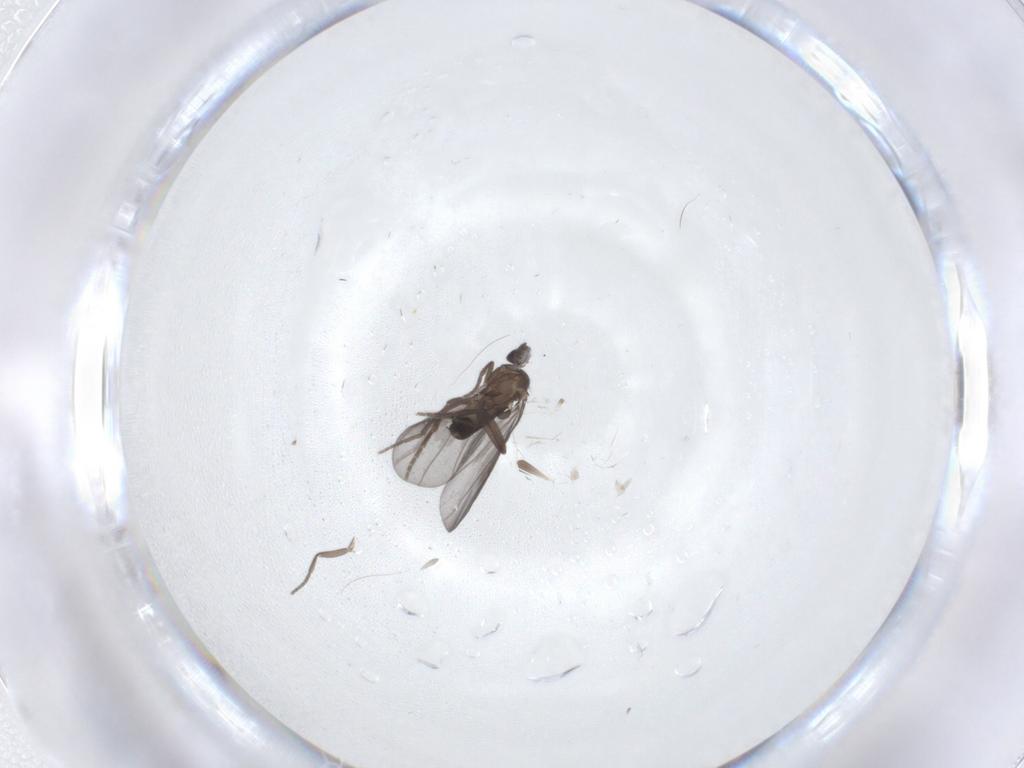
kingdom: Animalia
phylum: Arthropoda
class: Insecta
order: Diptera
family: Phoridae
